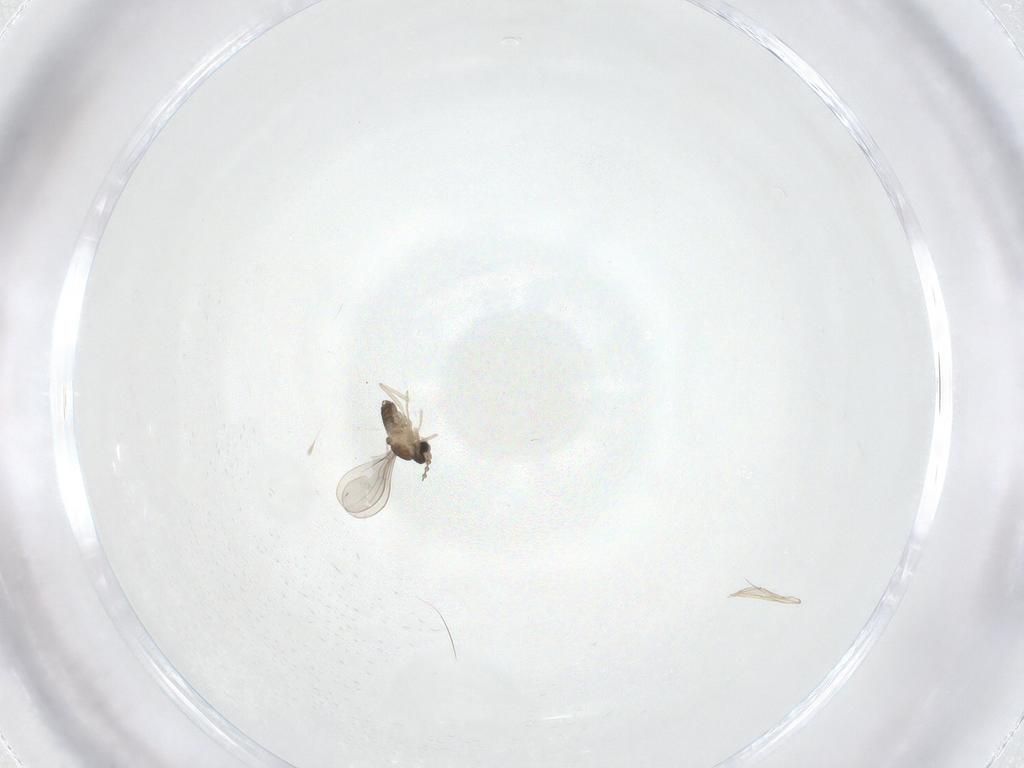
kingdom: Animalia
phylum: Arthropoda
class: Insecta
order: Diptera
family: Cecidomyiidae
